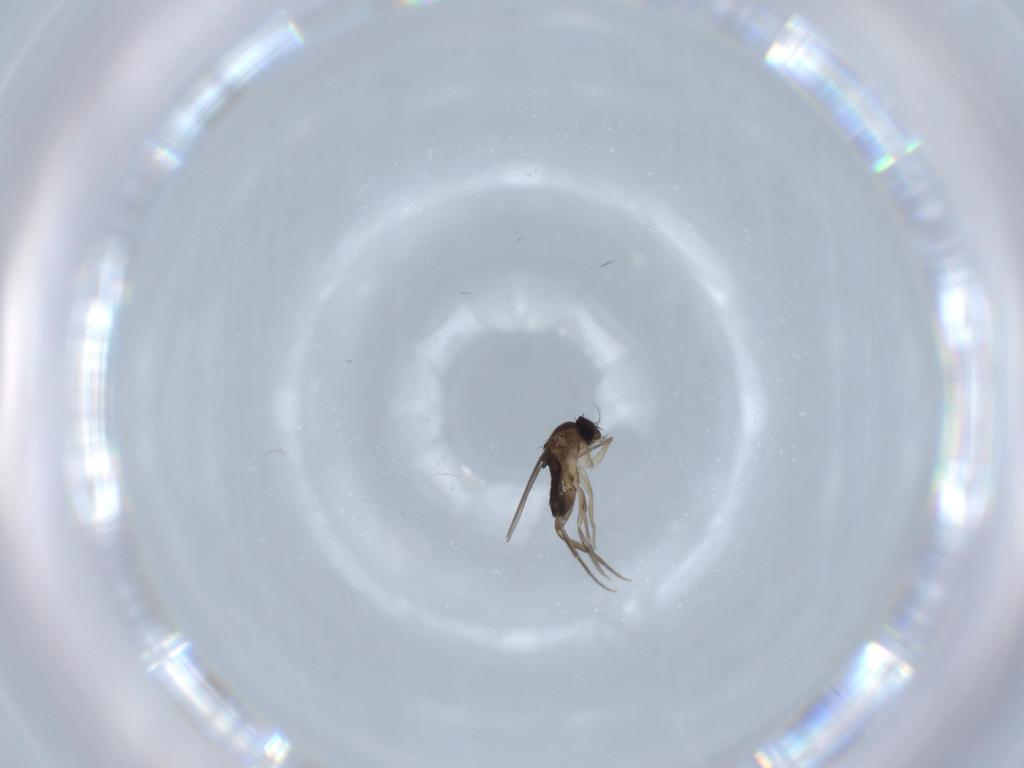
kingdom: Animalia
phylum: Arthropoda
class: Insecta
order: Diptera
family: Phoridae
